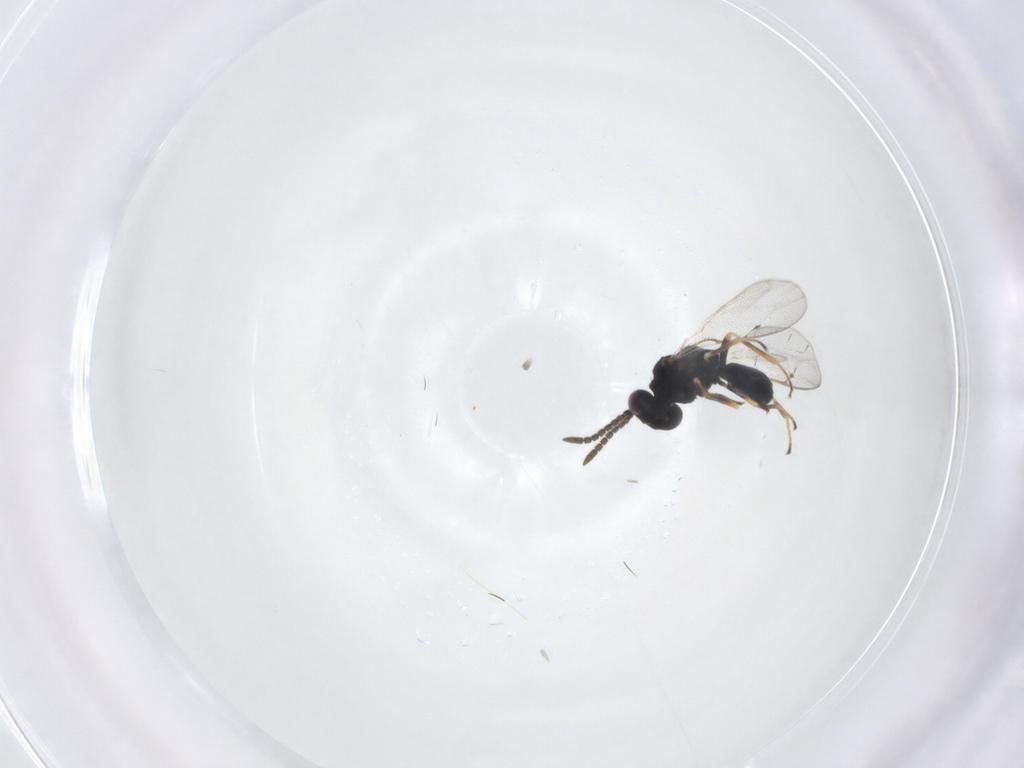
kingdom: Animalia
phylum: Arthropoda
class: Insecta
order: Hymenoptera
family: Pteromalidae
